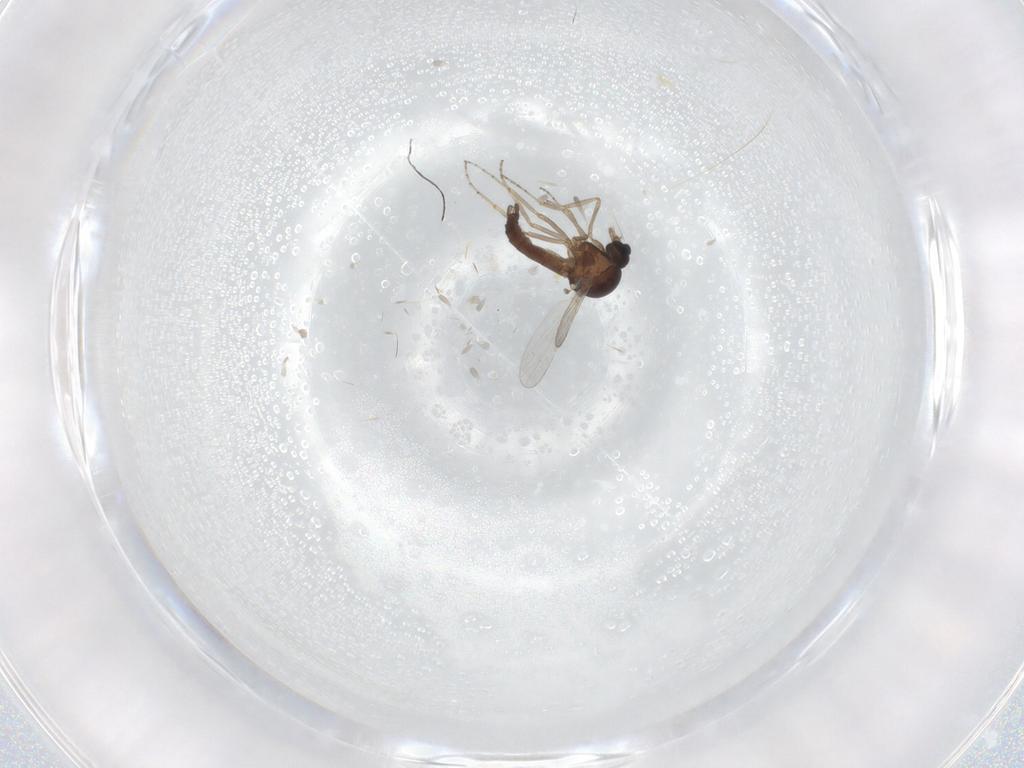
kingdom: Animalia
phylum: Arthropoda
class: Insecta
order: Diptera
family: Ceratopogonidae
